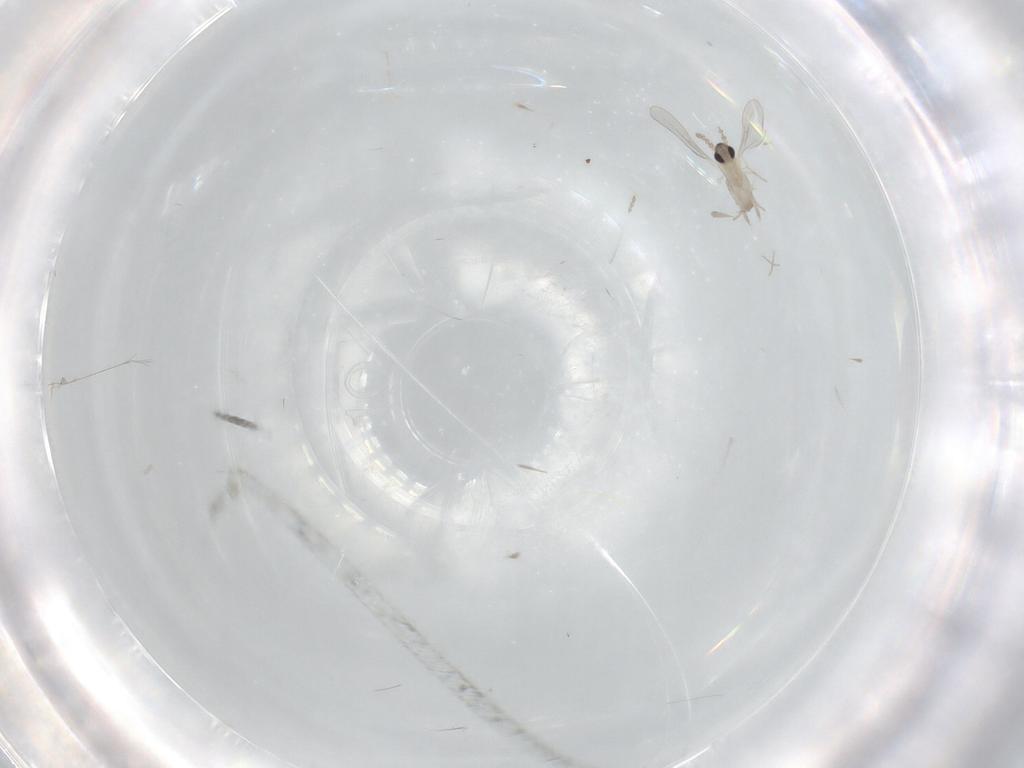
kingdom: Animalia
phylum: Arthropoda
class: Insecta
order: Diptera
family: Cecidomyiidae
